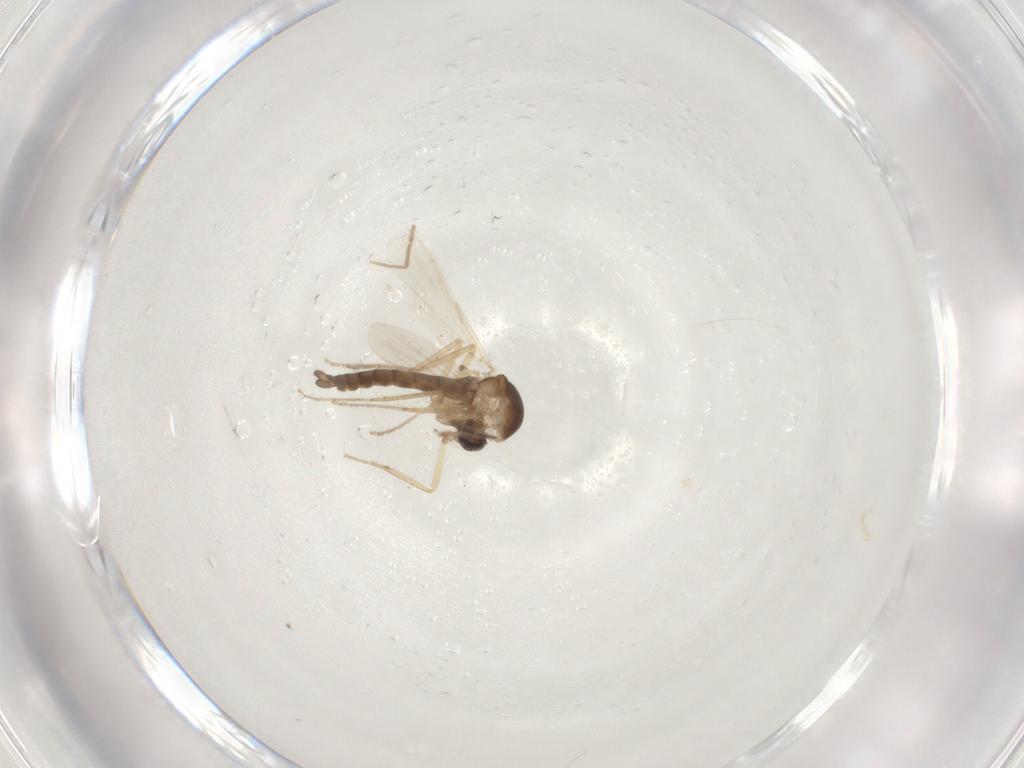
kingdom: Animalia
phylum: Arthropoda
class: Insecta
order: Diptera
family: Chironomidae
